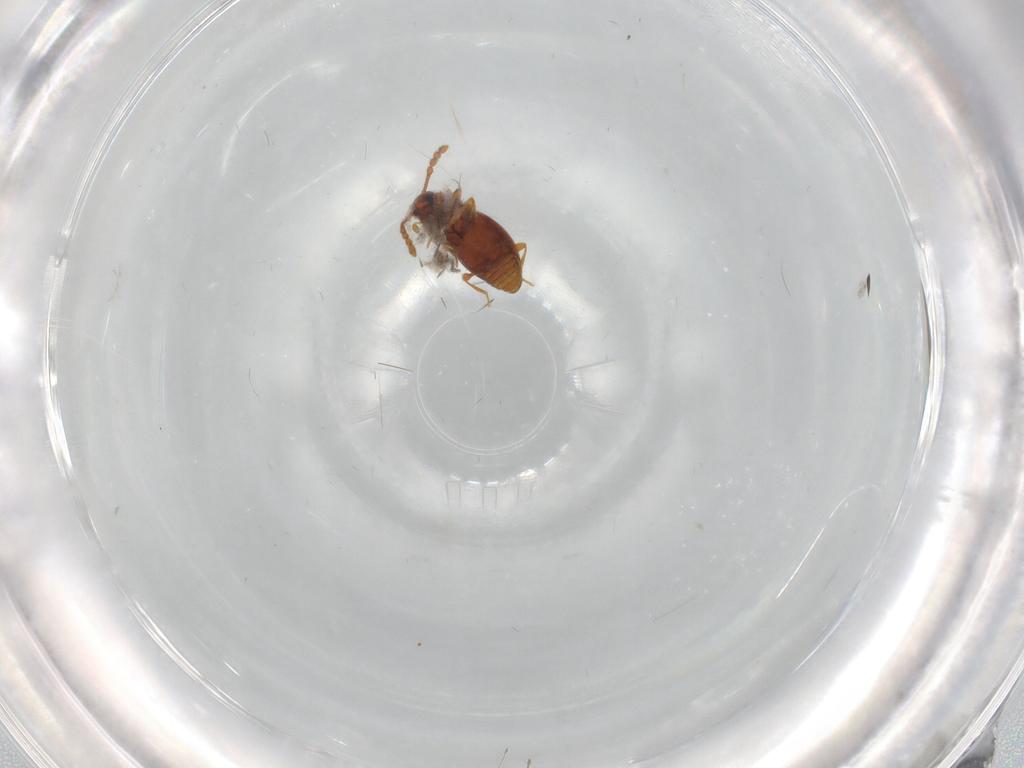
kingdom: Animalia
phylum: Arthropoda
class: Insecta
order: Coleoptera
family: Staphylinidae
